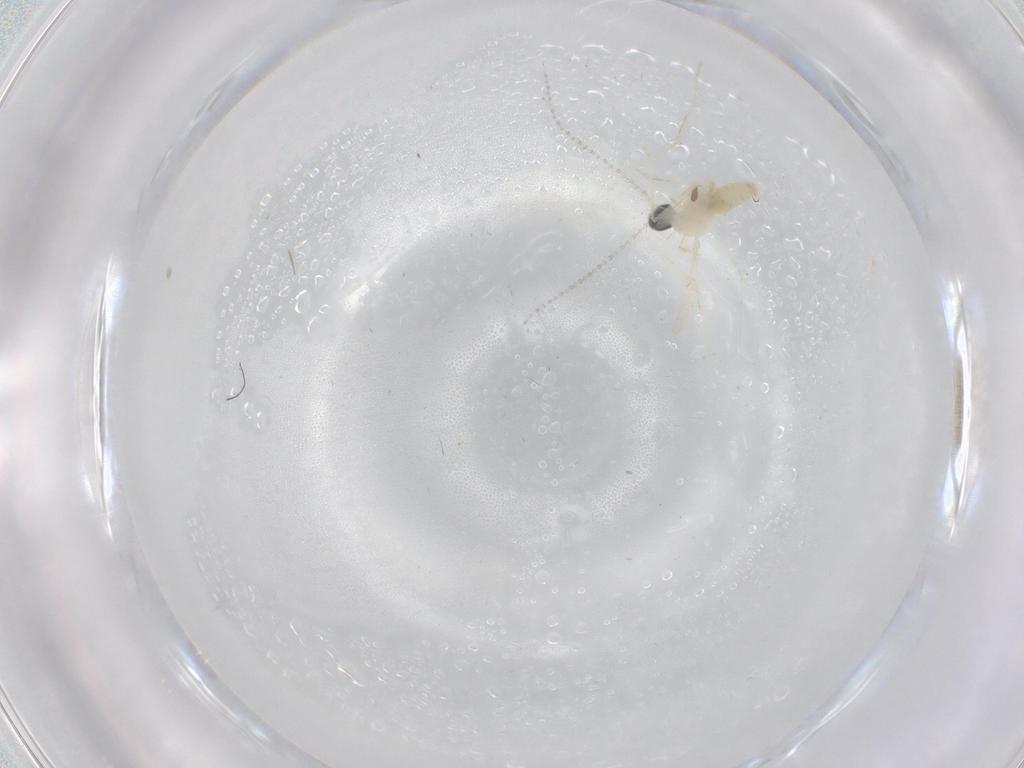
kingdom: Animalia
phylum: Arthropoda
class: Insecta
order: Diptera
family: Cecidomyiidae
